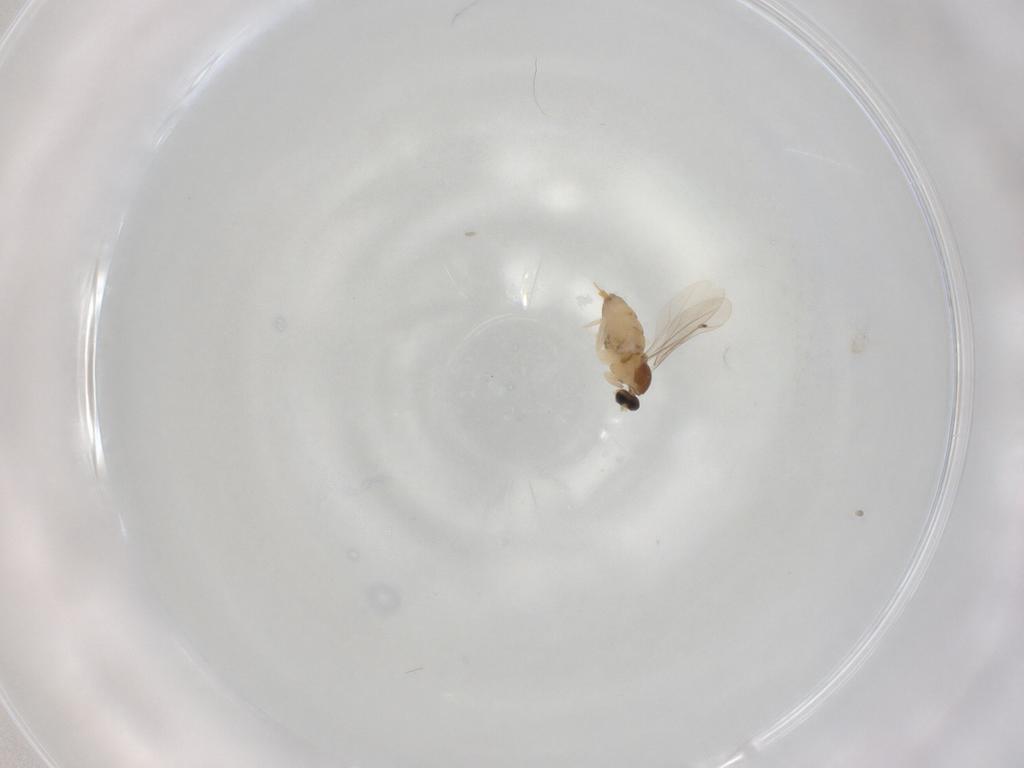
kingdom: Animalia
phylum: Arthropoda
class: Insecta
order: Diptera
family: Cecidomyiidae
